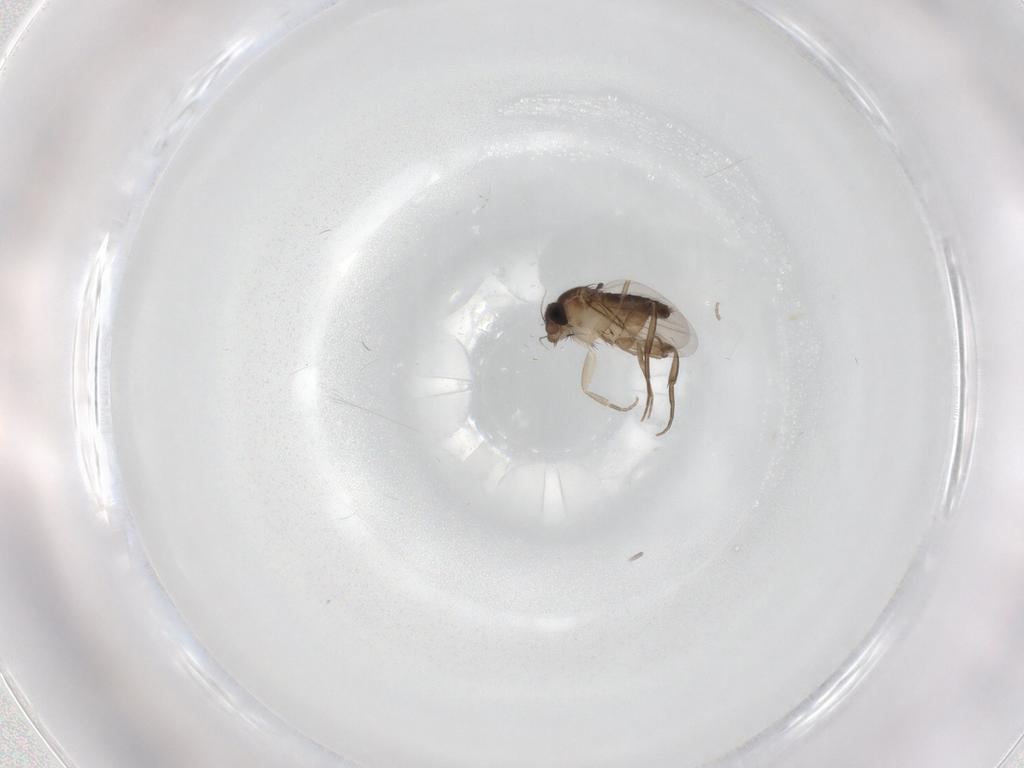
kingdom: Animalia
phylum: Arthropoda
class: Insecta
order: Diptera
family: Phoridae
